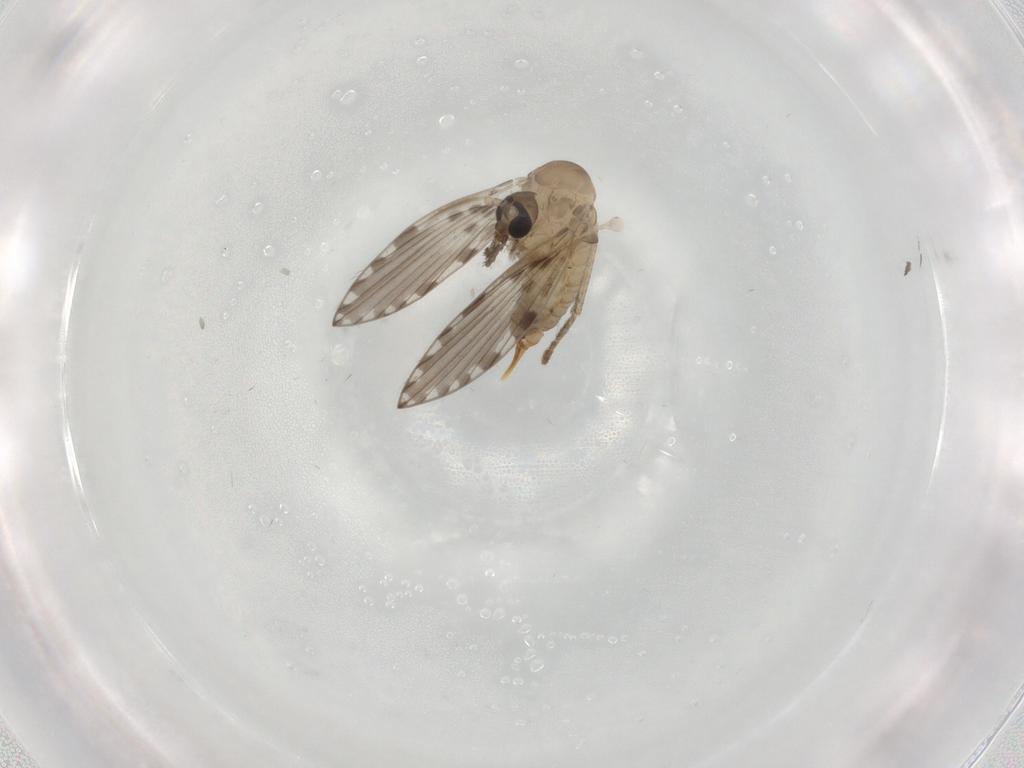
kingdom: Animalia
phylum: Arthropoda
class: Insecta
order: Diptera
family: Psychodidae
